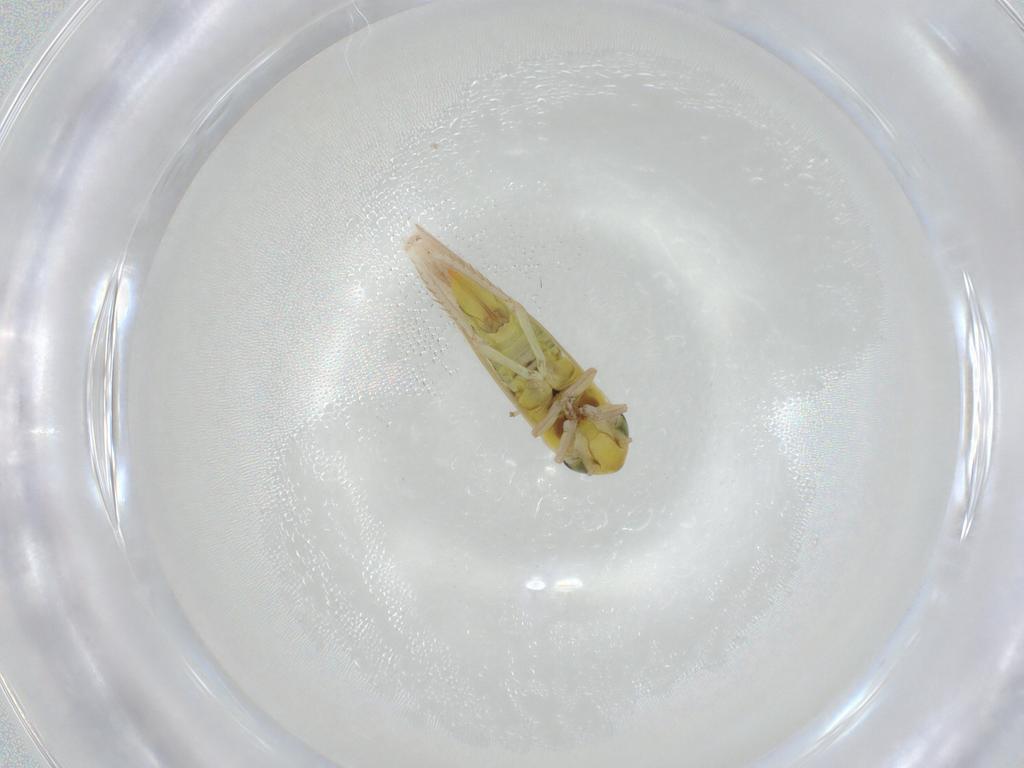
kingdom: Animalia
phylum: Arthropoda
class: Insecta
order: Hemiptera
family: Cicadellidae
